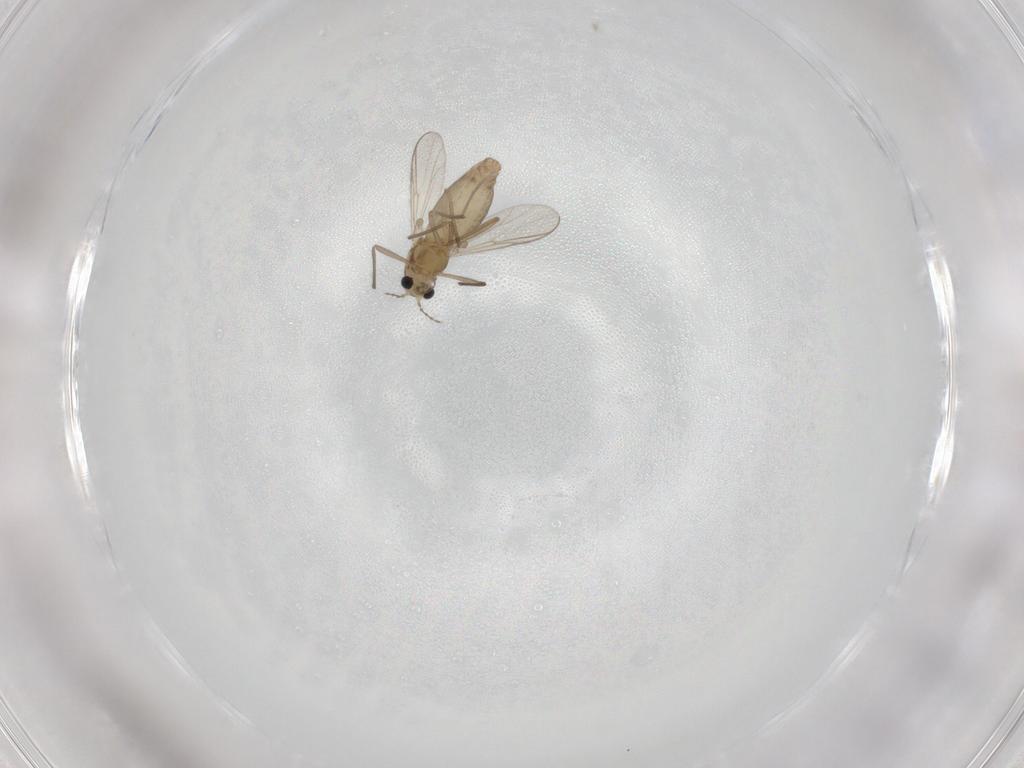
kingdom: Animalia
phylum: Arthropoda
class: Insecta
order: Diptera
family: Chironomidae
